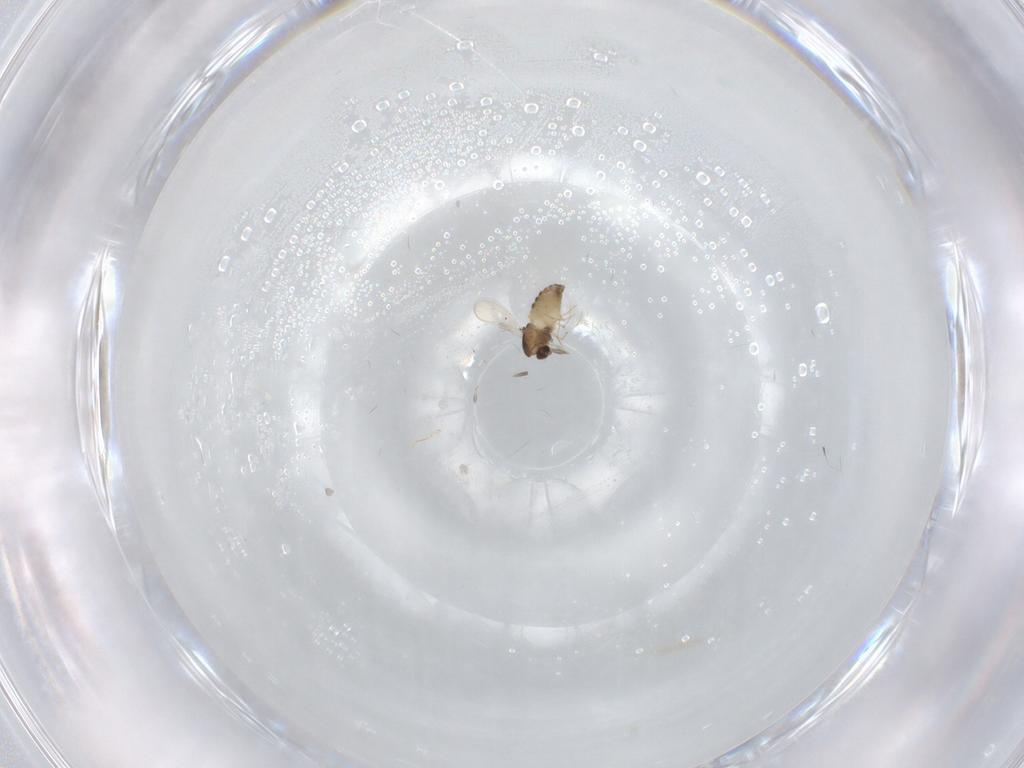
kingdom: Animalia
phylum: Arthropoda
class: Insecta
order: Diptera
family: Chironomidae
